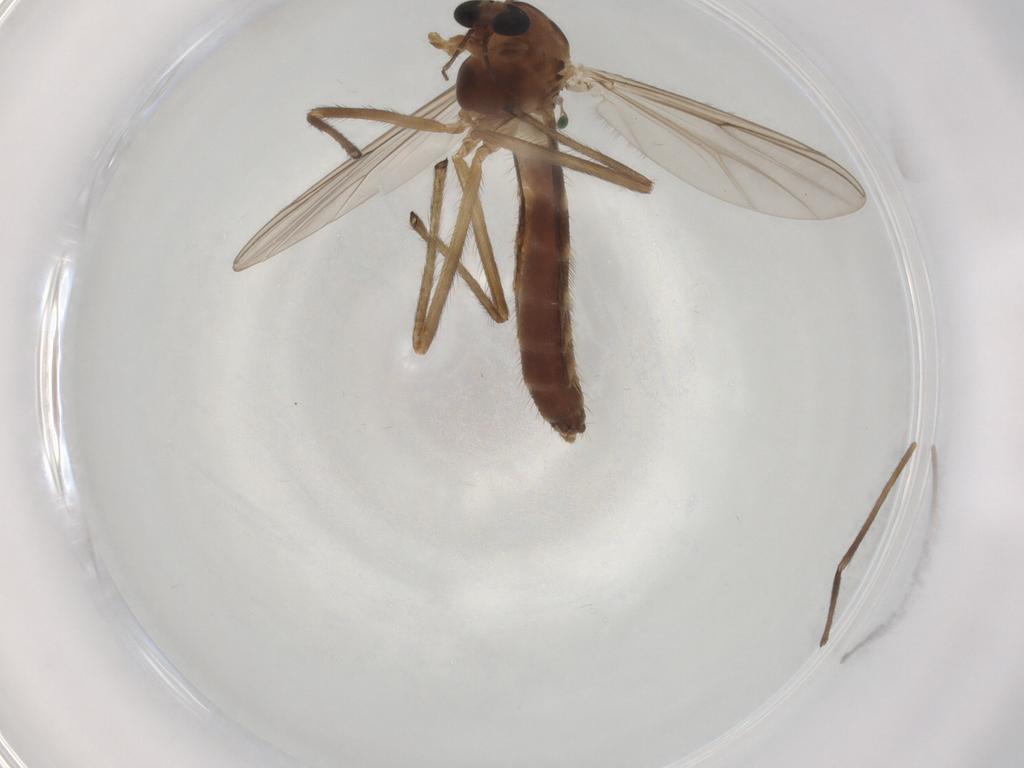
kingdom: Animalia
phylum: Arthropoda
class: Insecta
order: Diptera
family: Chironomidae
